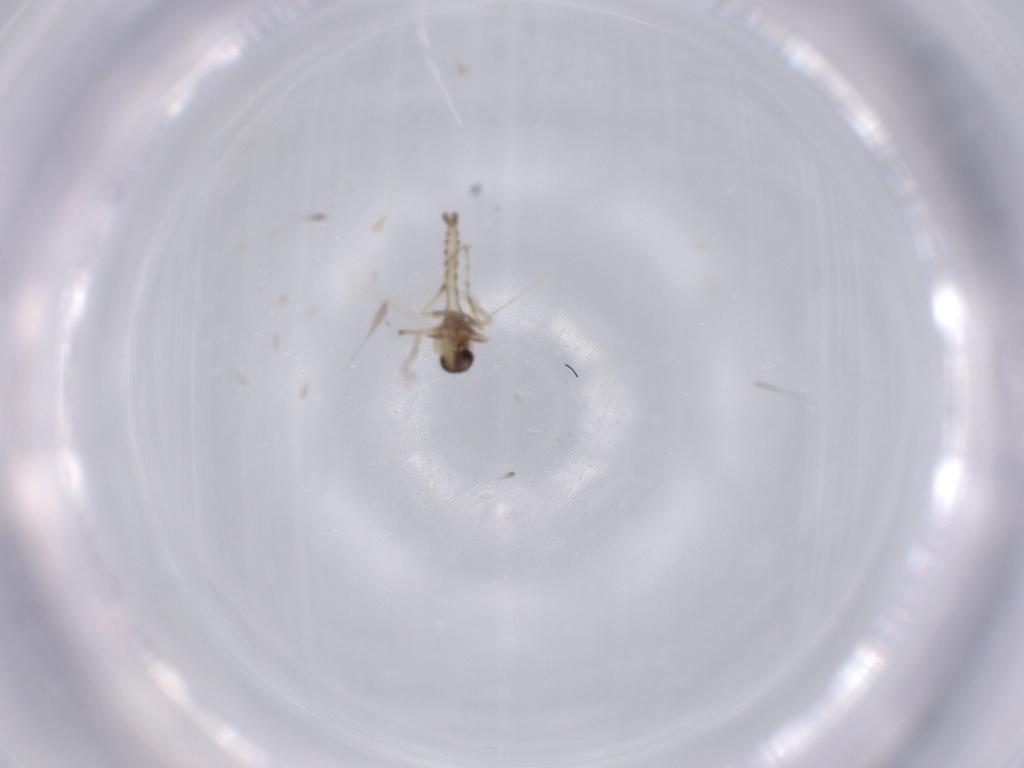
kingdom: Animalia
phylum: Arthropoda
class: Insecta
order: Diptera
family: Ceratopogonidae
